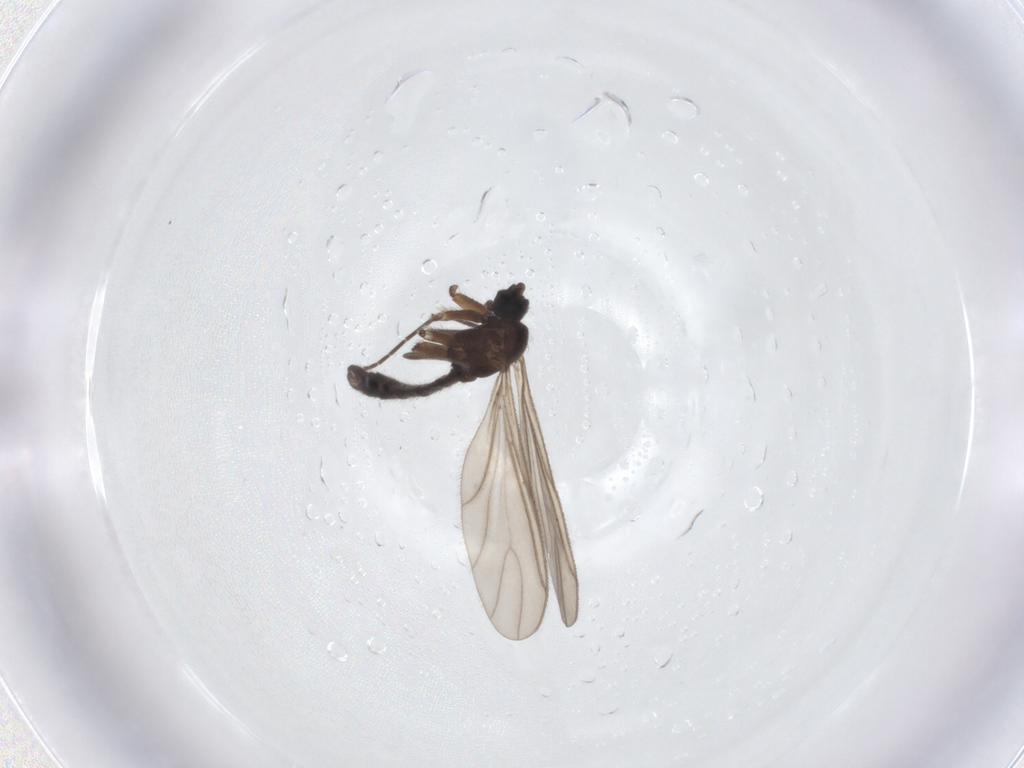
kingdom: Animalia
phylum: Arthropoda
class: Insecta
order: Diptera
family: Sciaridae
